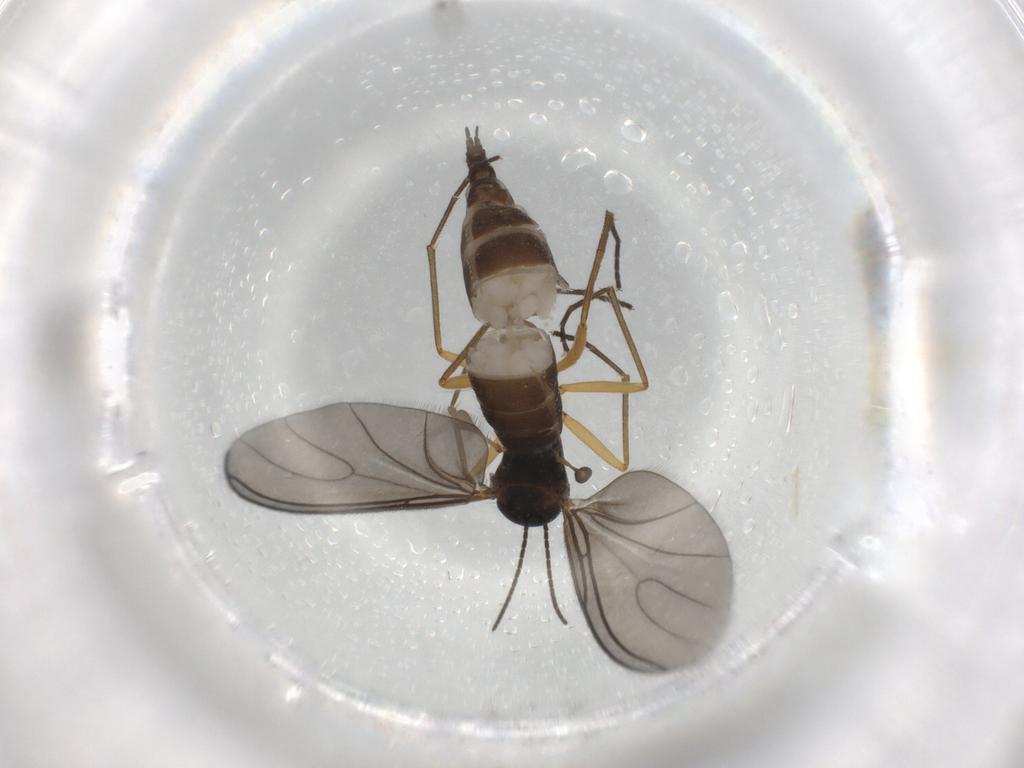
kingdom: Animalia
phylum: Arthropoda
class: Insecta
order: Diptera
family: Sciaridae
